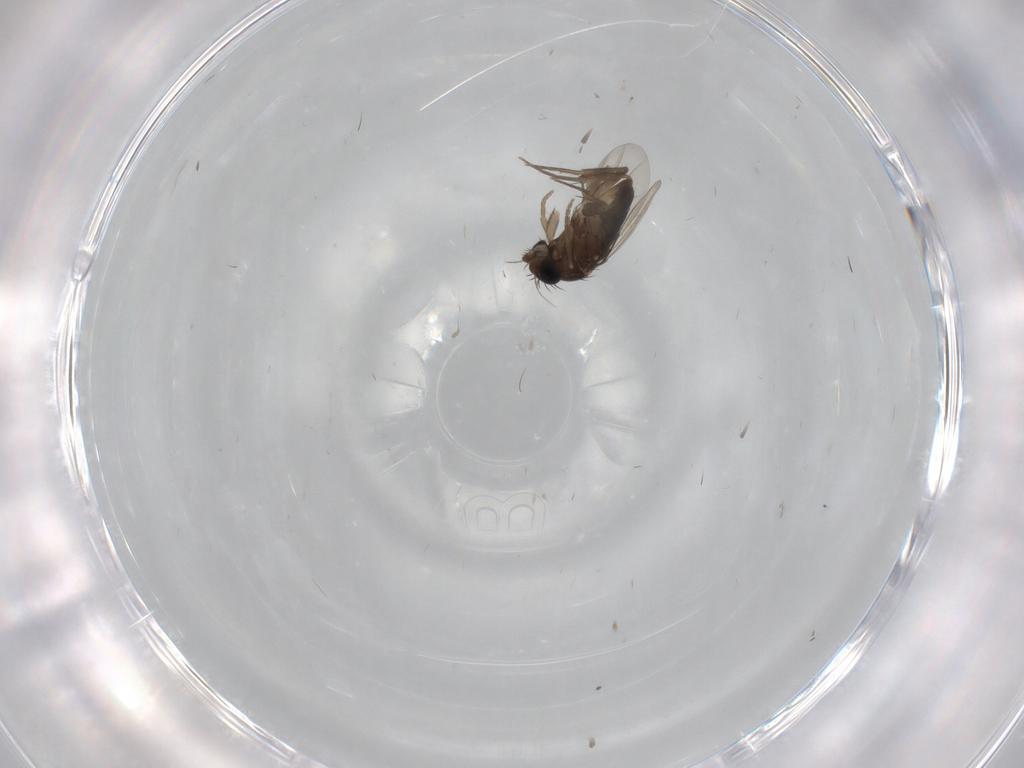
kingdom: Animalia
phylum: Arthropoda
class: Insecta
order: Diptera
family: Phoridae
